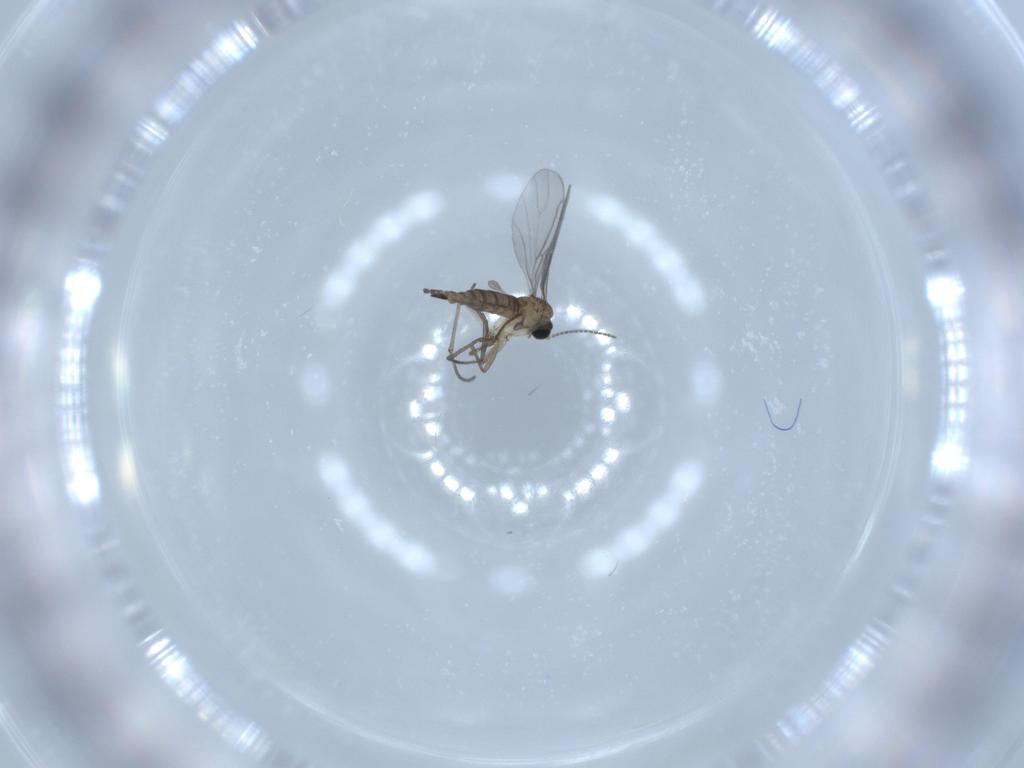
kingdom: Animalia
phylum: Arthropoda
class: Insecta
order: Diptera
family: Sciaridae
